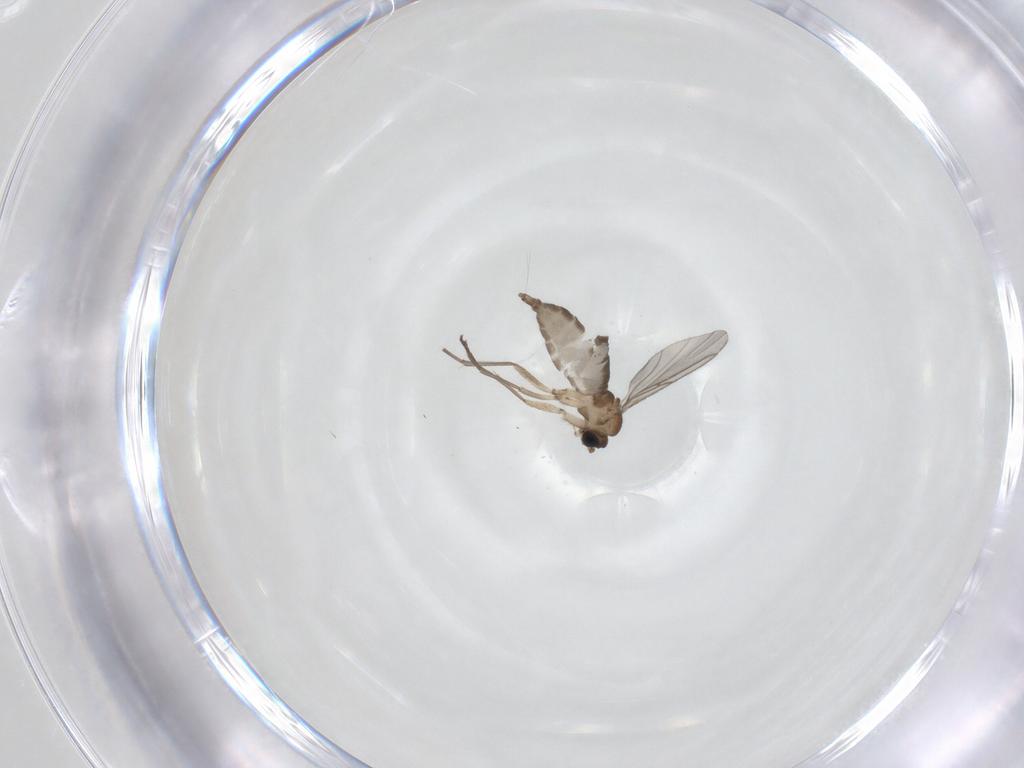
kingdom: Animalia
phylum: Arthropoda
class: Insecta
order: Diptera
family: Sciaridae
